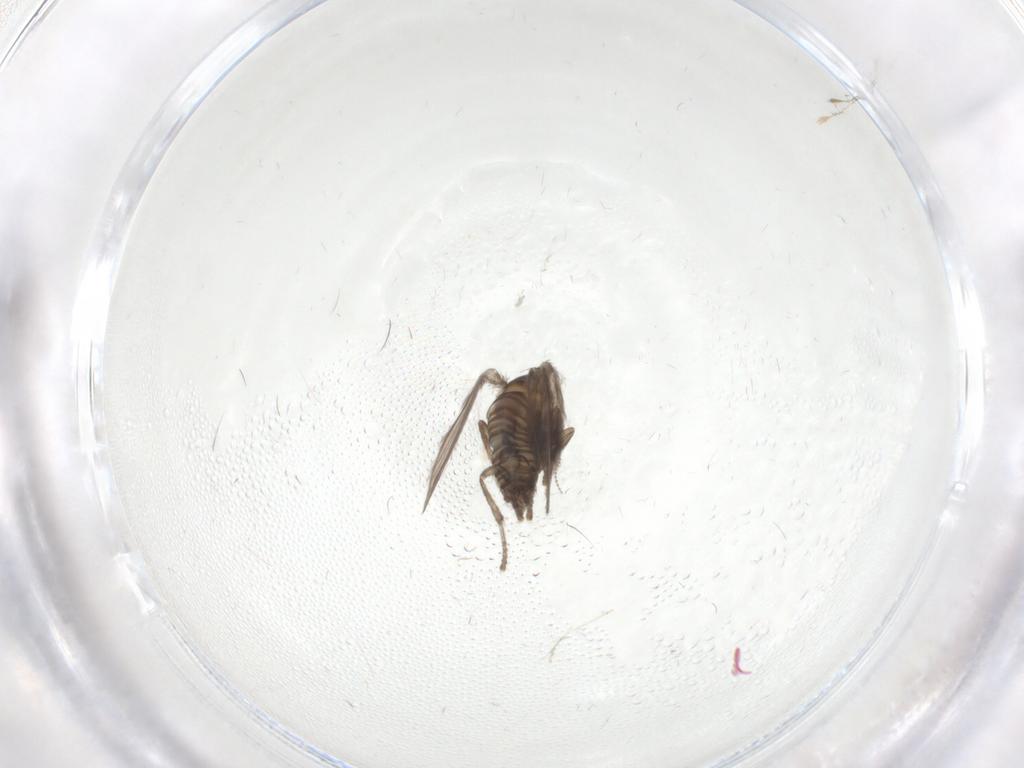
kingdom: Animalia
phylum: Arthropoda
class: Insecta
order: Diptera
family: Psychodidae
